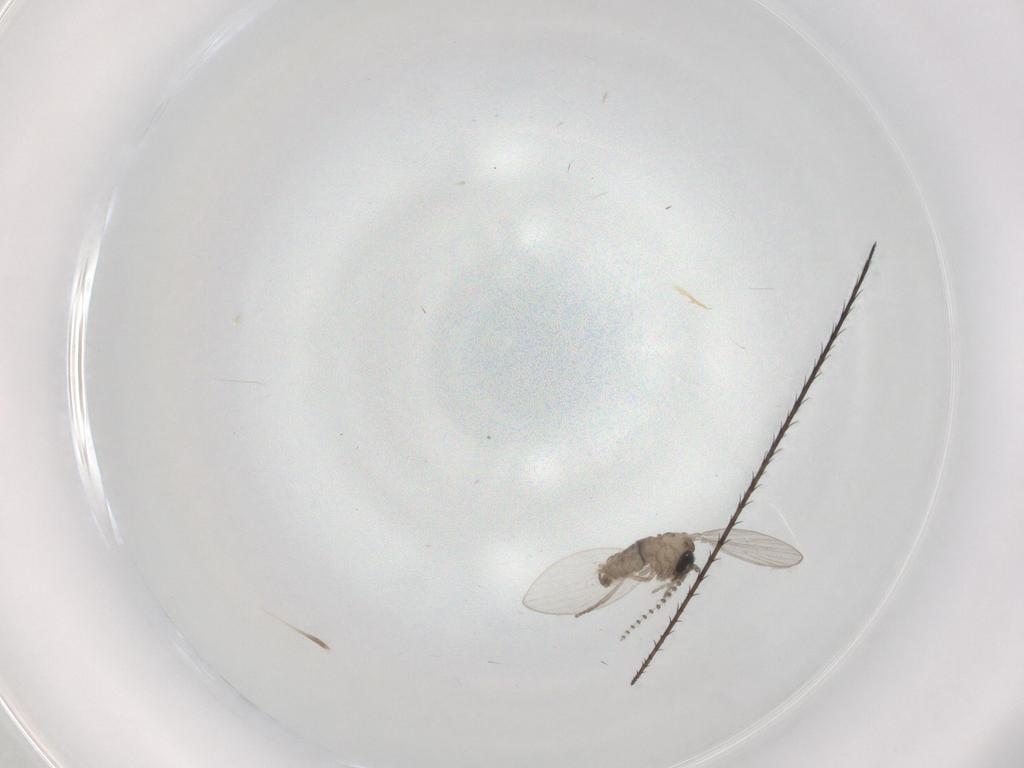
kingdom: Animalia
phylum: Arthropoda
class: Insecta
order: Diptera
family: Psychodidae
